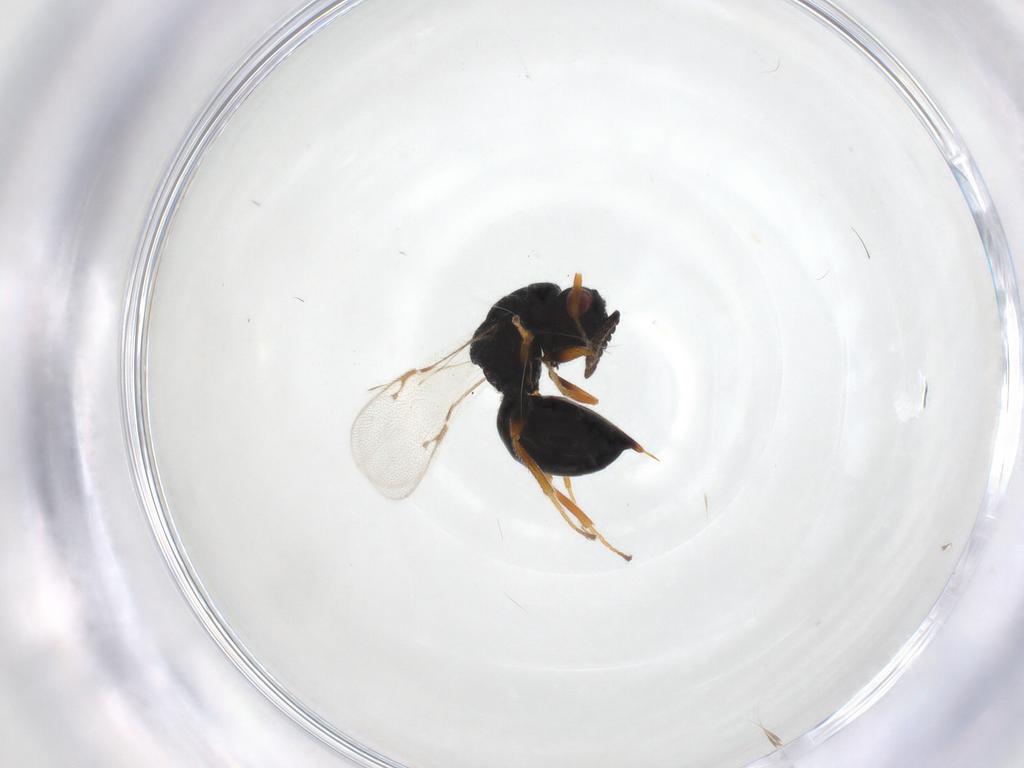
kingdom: Animalia
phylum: Arthropoda
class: Insecta
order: Hymenoptera
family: Eurytomidae
